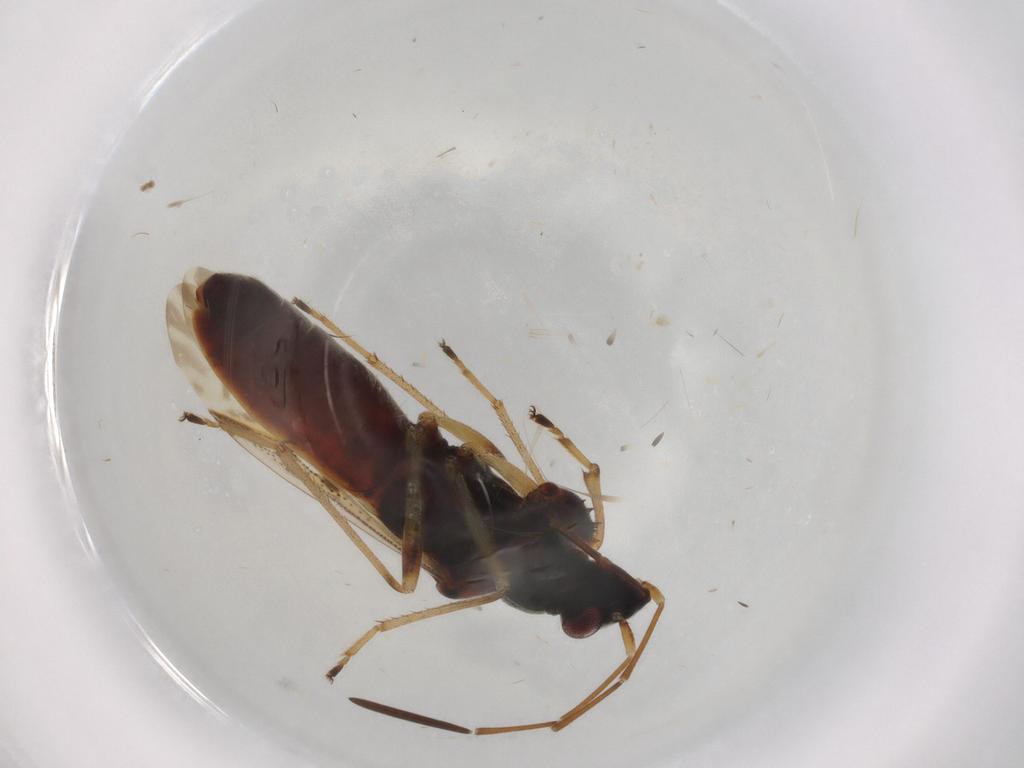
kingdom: Animalia
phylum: Arthropoda
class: Insecta
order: Hemiptera
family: Rhyparochromidae
